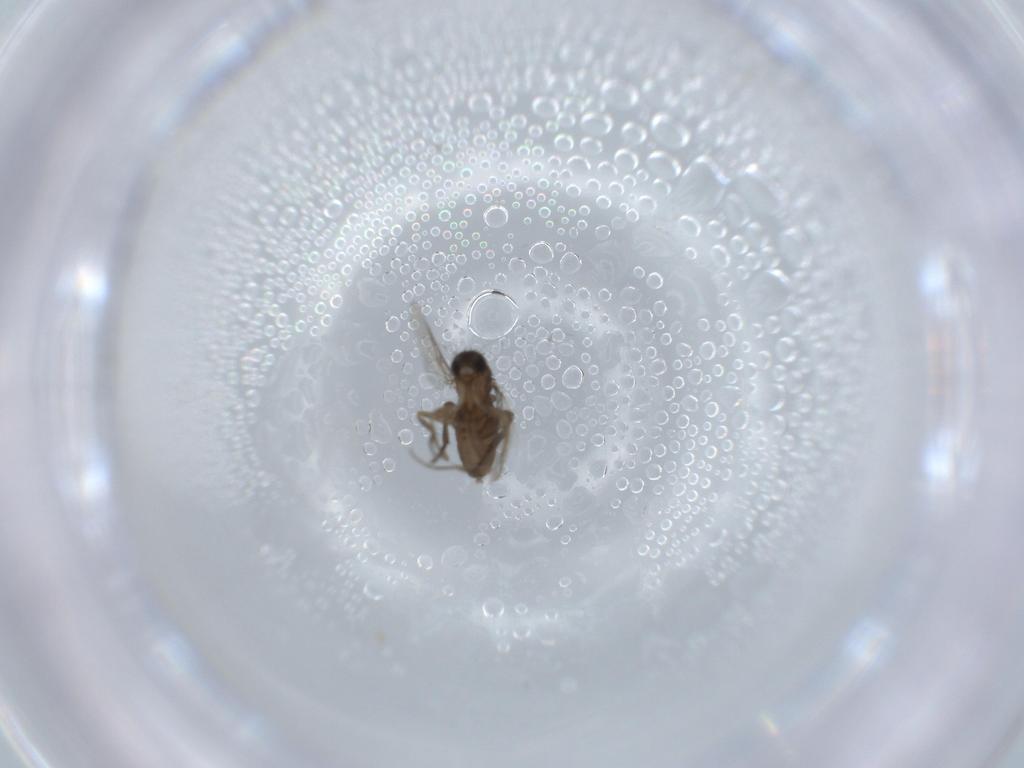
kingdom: Animalia
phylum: Arthropoda
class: Insecta
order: Diptera
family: Phoridae
